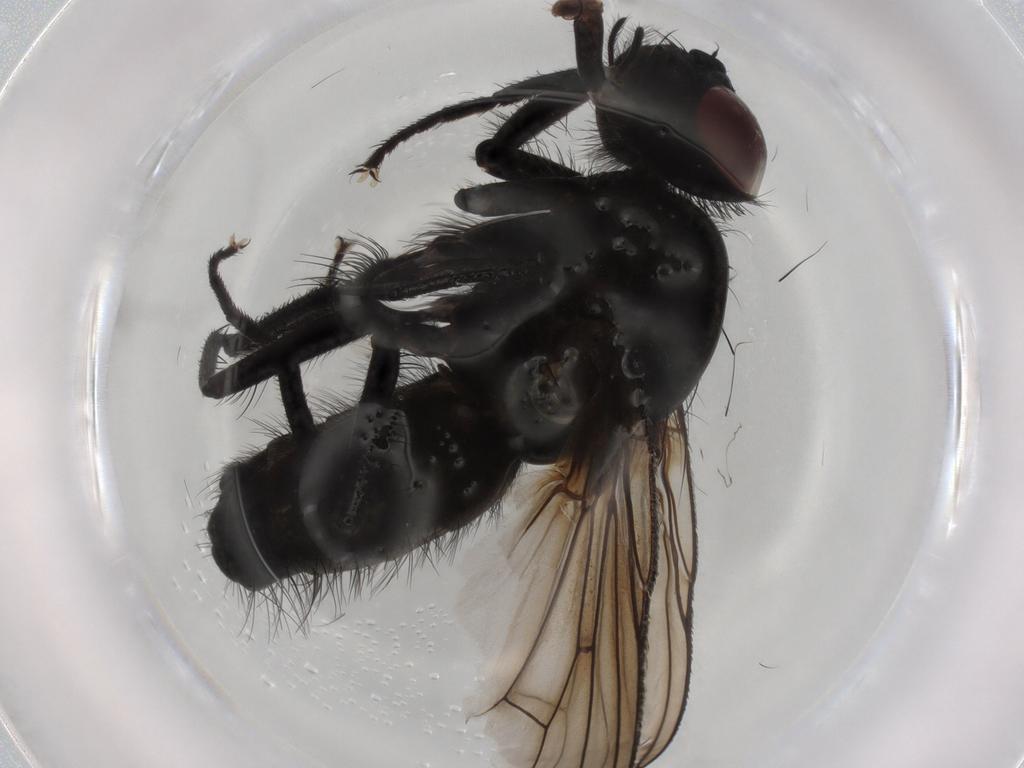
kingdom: Animalia
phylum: Arthropoda
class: Insecta
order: Diptera
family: Muscidae
